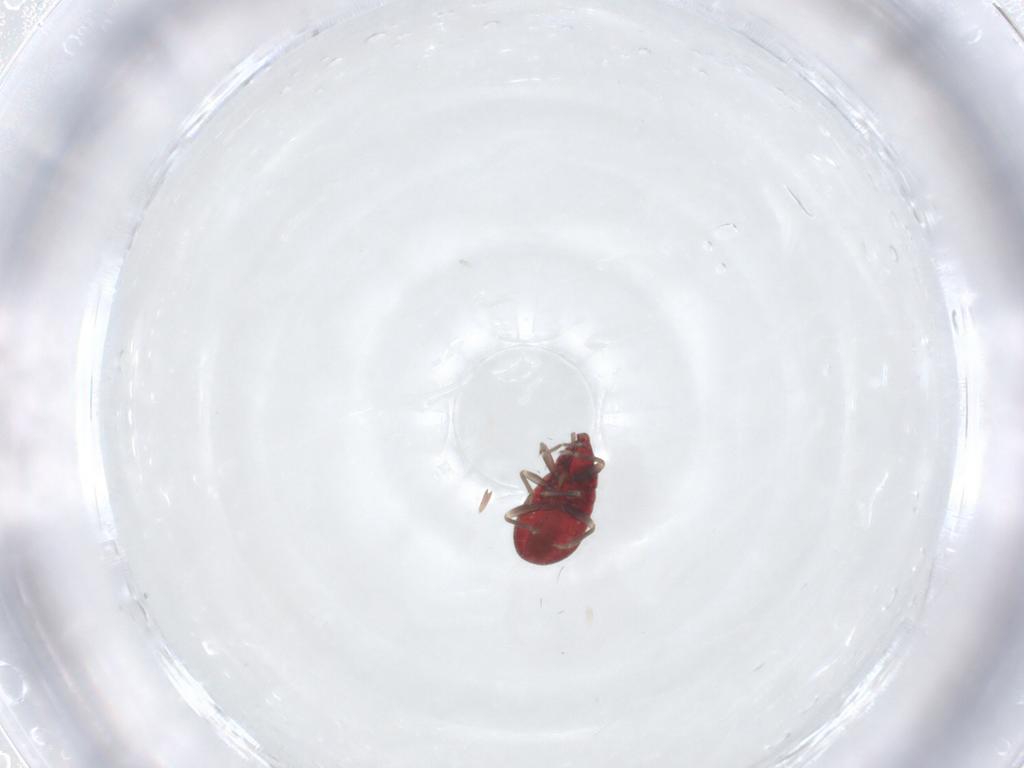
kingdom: Animalia
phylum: Arthropoda
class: Insecta
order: Hemiptera
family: Anthocoridae
